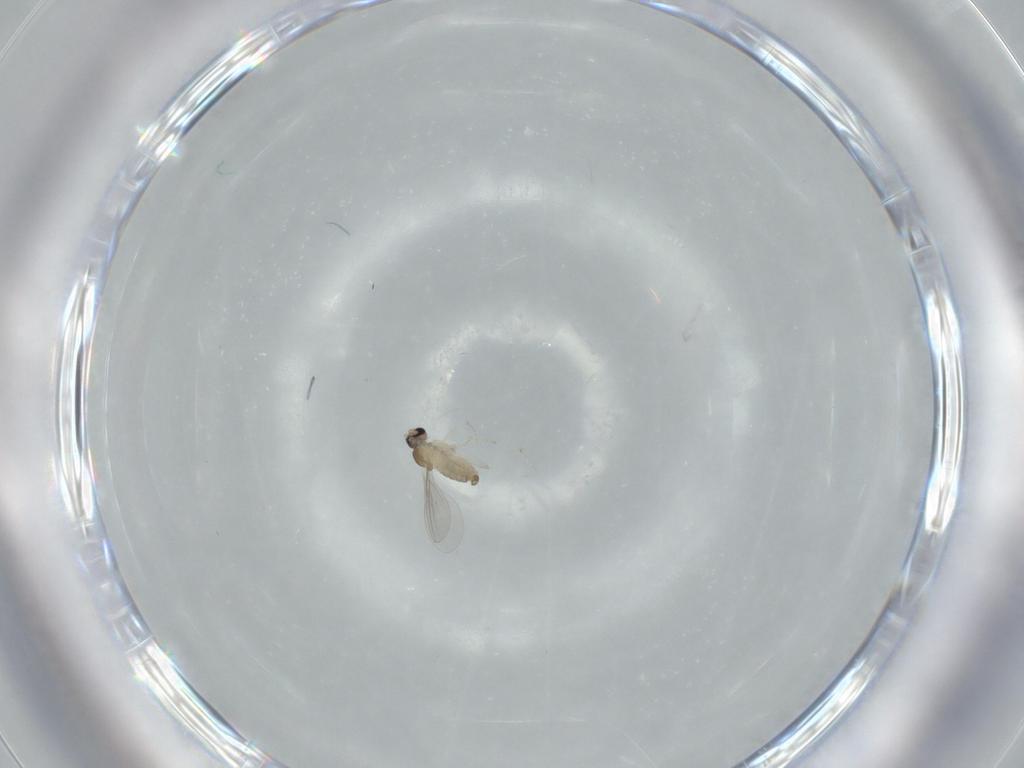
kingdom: Animalia
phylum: Arthropoda
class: Insecta
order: Diptera
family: Cecidomyiidae
